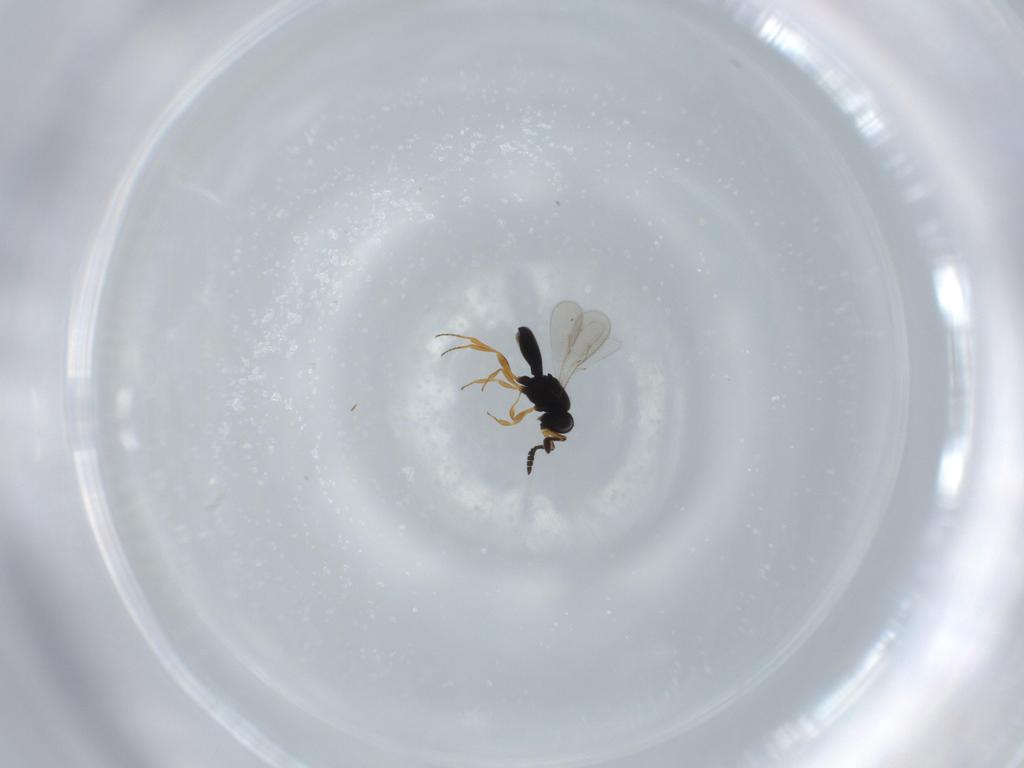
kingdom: Animalia
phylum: Arthropoda
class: Insecta
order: Hymenoptera
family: Scelionidae
